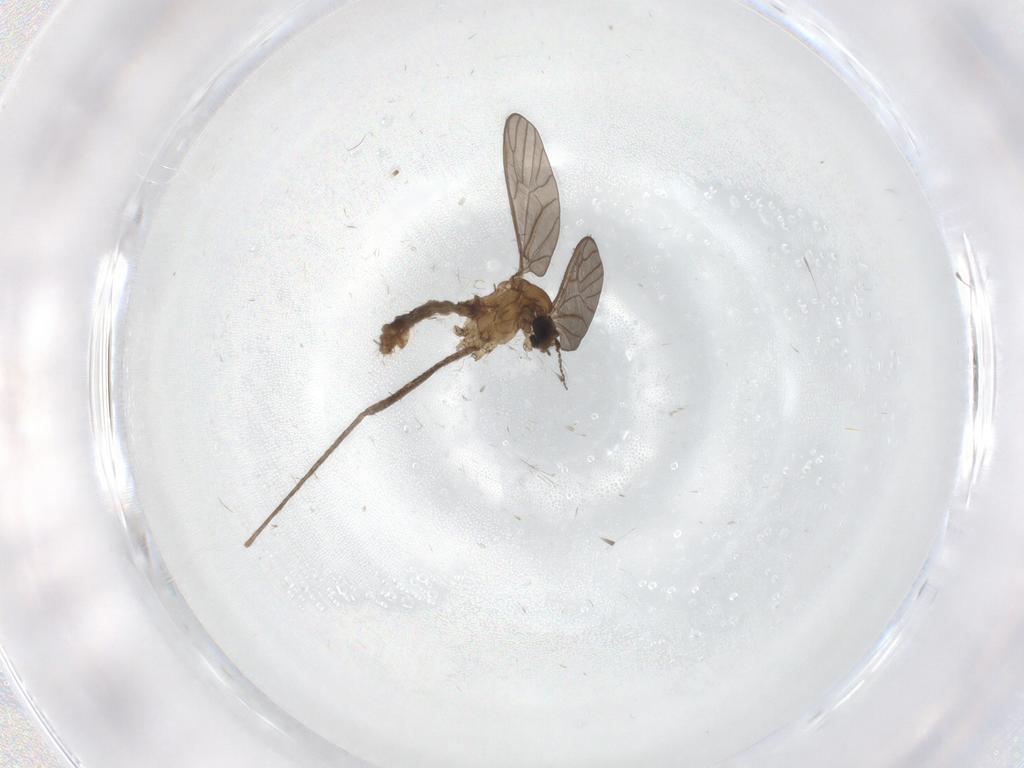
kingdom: Animalia
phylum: Arthropoda
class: Insecta
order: Diptera
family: Limoniidae
